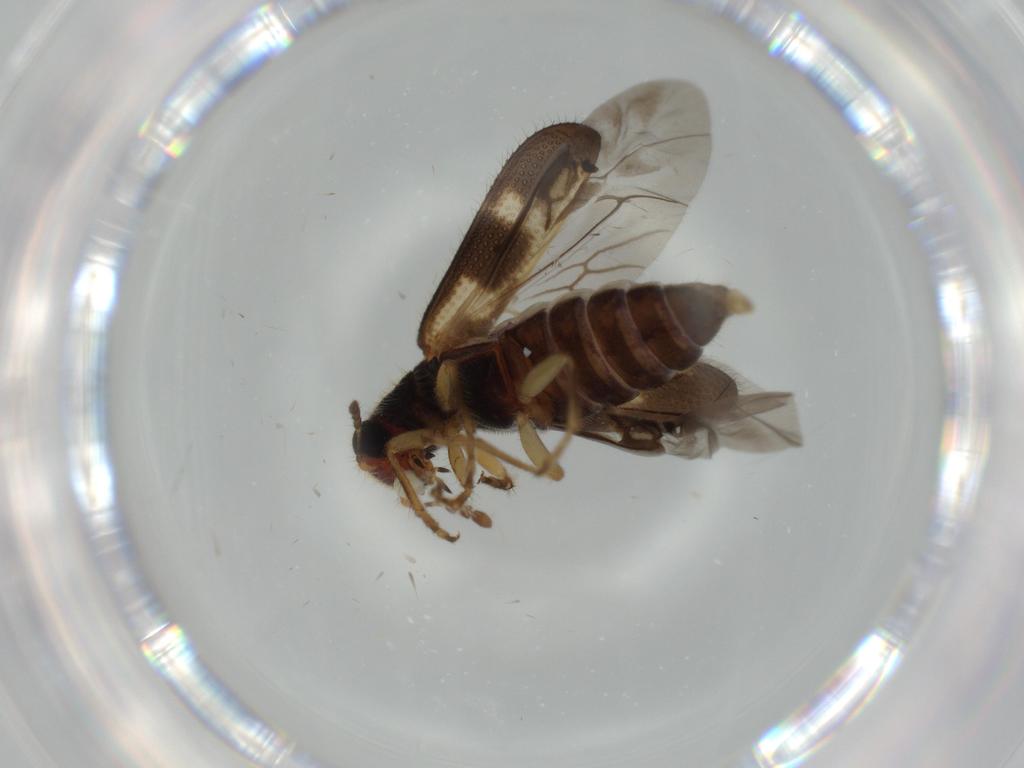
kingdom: Animalia
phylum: Arthropoda
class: Insecta
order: Coleoptera
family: Cleridae
